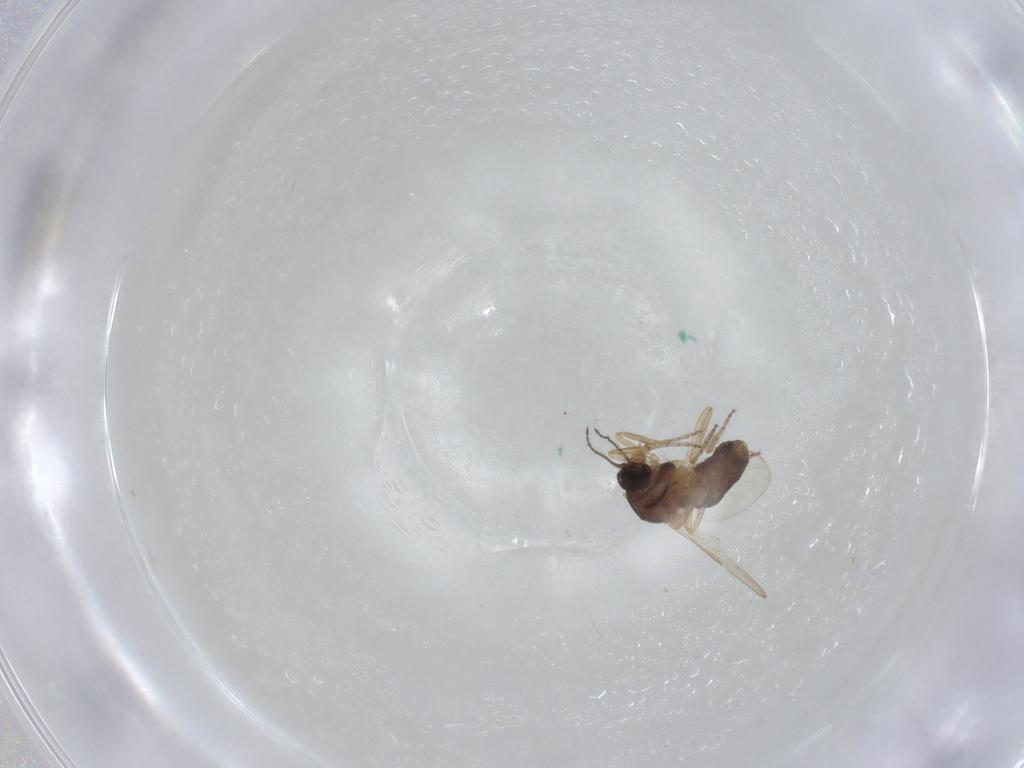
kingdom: Animalia
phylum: Arthropoda
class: Insecta
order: Diptera
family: Ceratopogonidae
